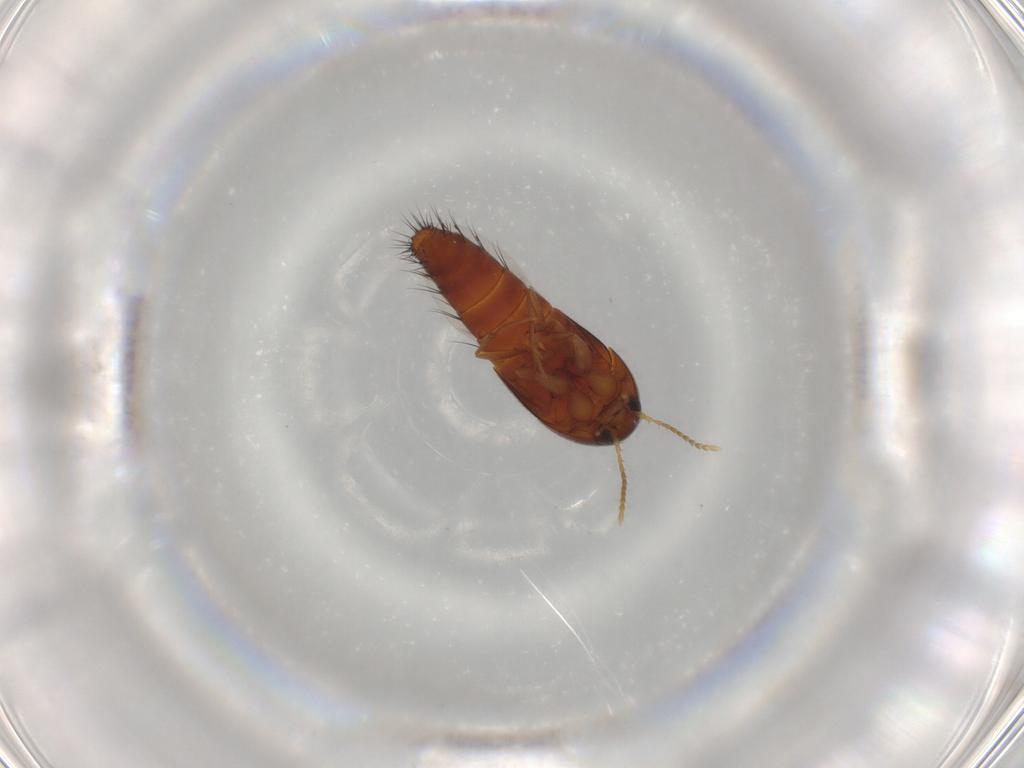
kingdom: Animalia
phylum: Arthropoda
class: Insecta
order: Coleoptera
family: Staphylinidae
